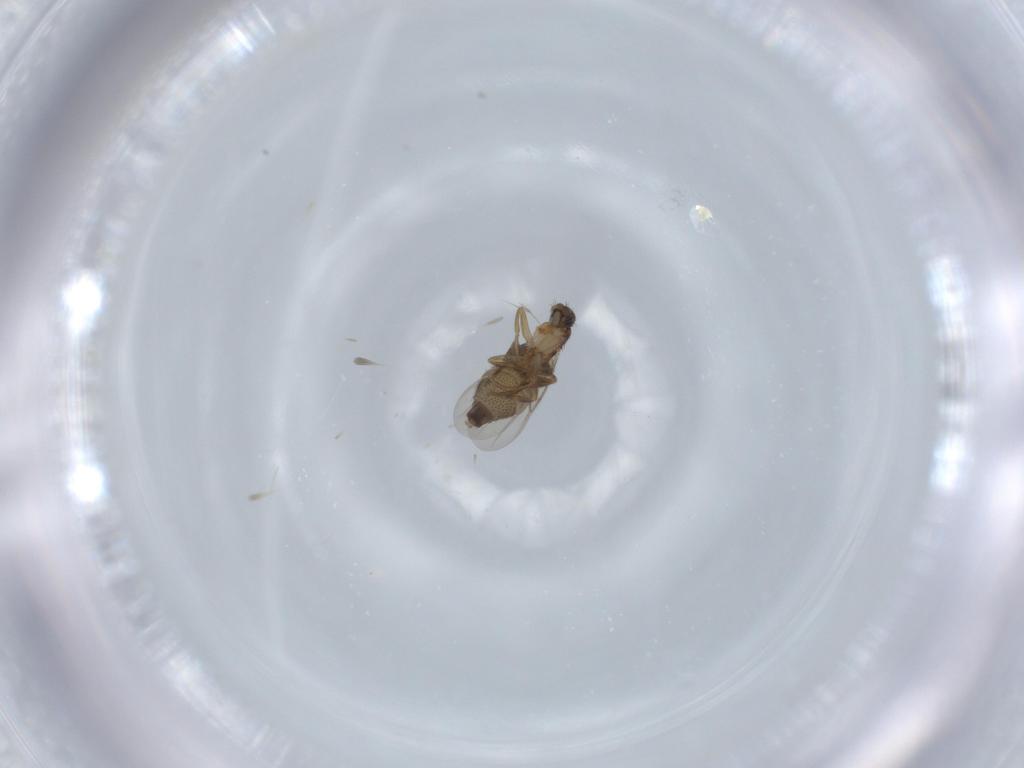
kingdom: Animalia
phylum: Arthropoda
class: Insecta
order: Diptera
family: Phoridae
